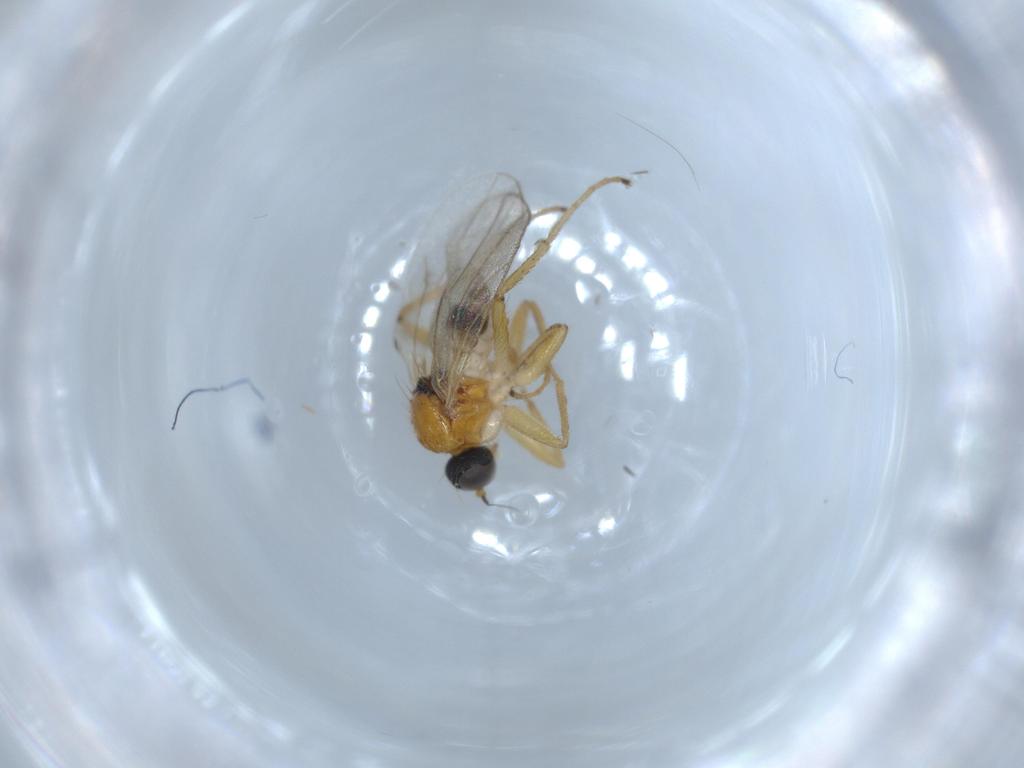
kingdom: Animalia
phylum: Arthropoda
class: Insecta
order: Diptera
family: Hybotidae
